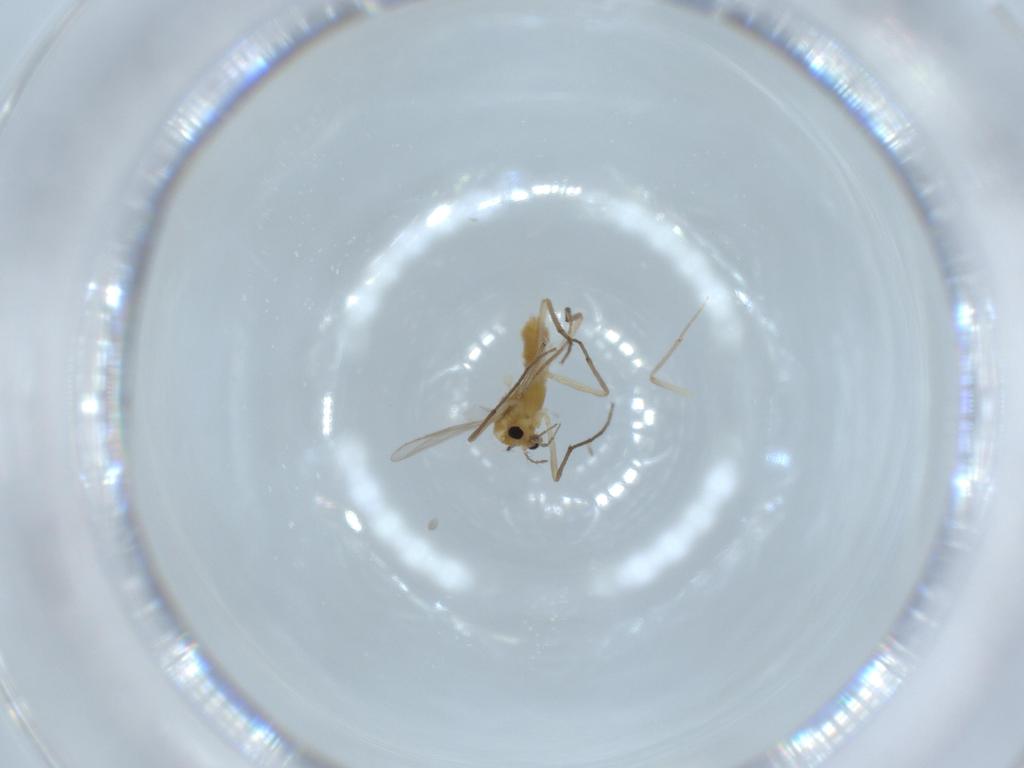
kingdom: Animalia
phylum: Arthropoda
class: Insecta
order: Diptera
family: Chironomidae
